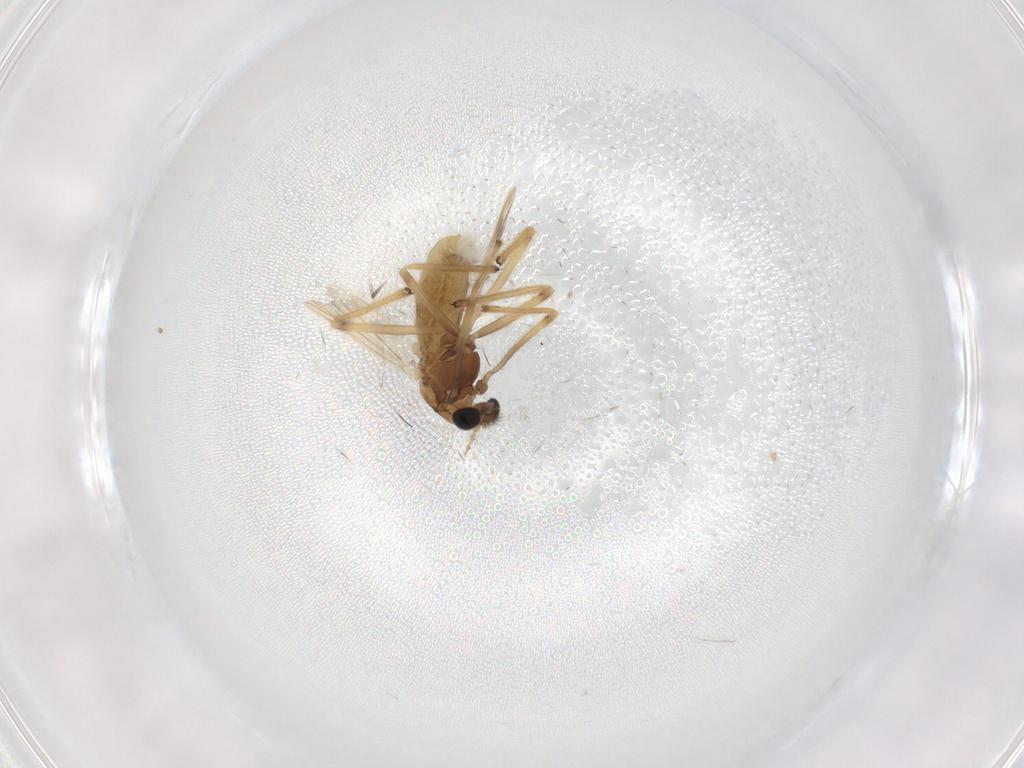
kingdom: Animalia
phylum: Arthropoda
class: Insecta
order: Diptera
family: Chironomidae
